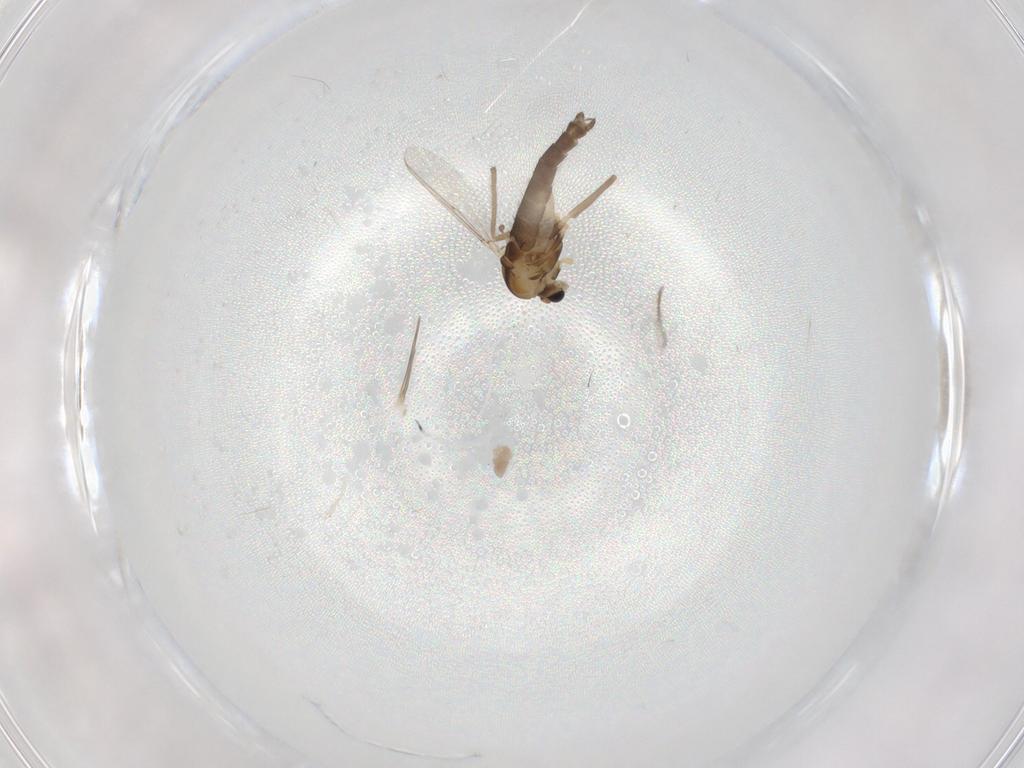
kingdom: Animalia
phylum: Arthropoda
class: Insecta
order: Diptera
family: Chironomidae
